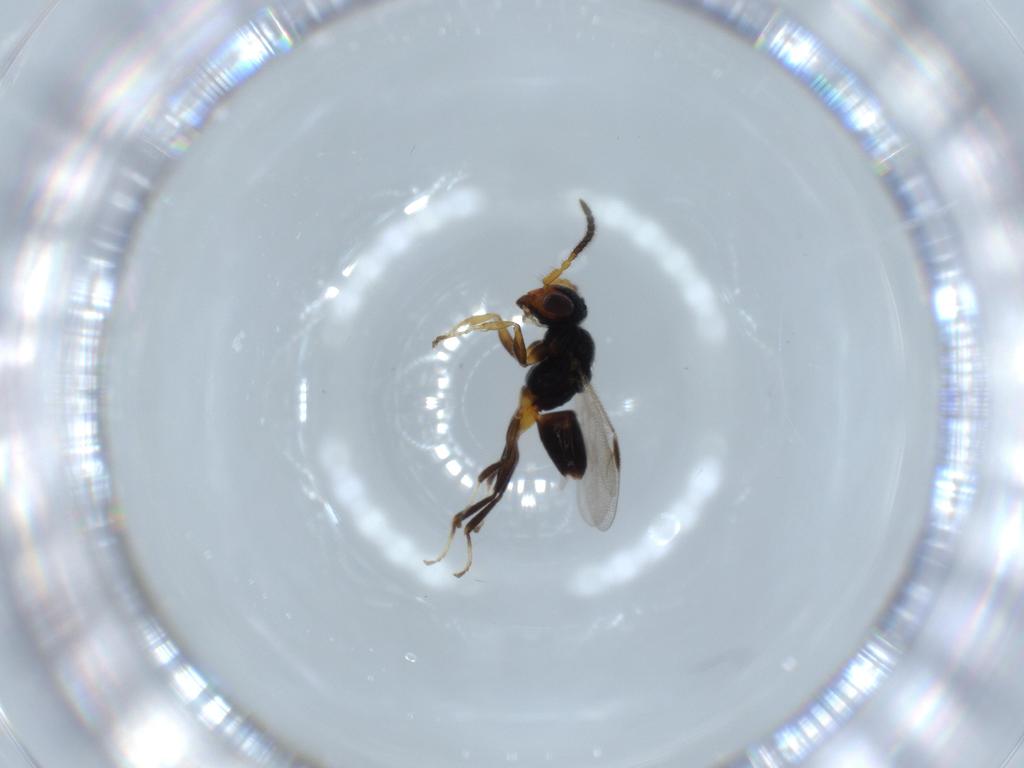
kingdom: Animalia
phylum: Arthropoda
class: Insecta
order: Hymenoptera
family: Dryinidae
